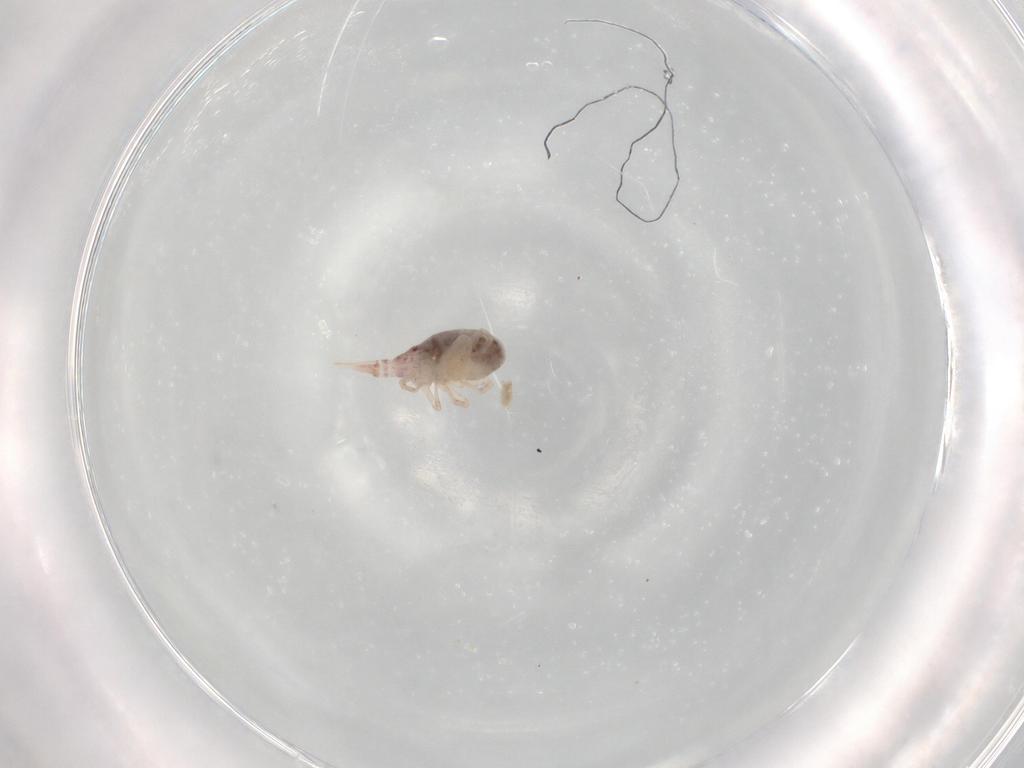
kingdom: Animalia
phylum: Arthropoda
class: Arachnida
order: Trombidiformes
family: Bdellidae
